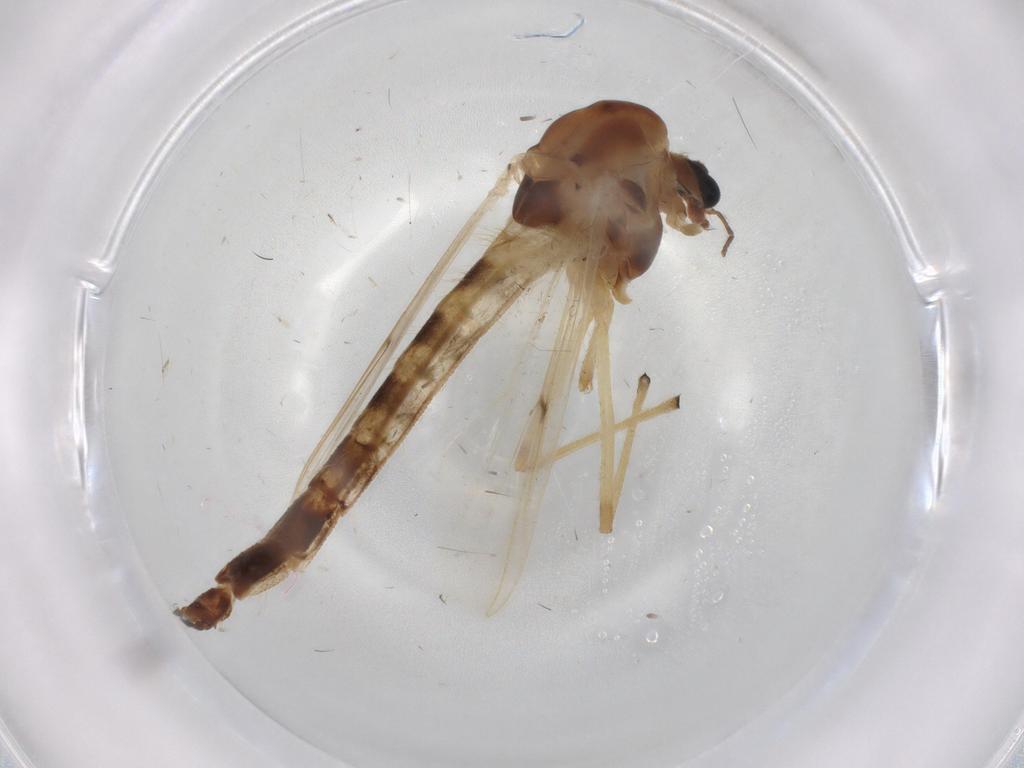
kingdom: Animalia
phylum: Arthropoda
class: Insecta
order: Diptera
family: Chironomidae
